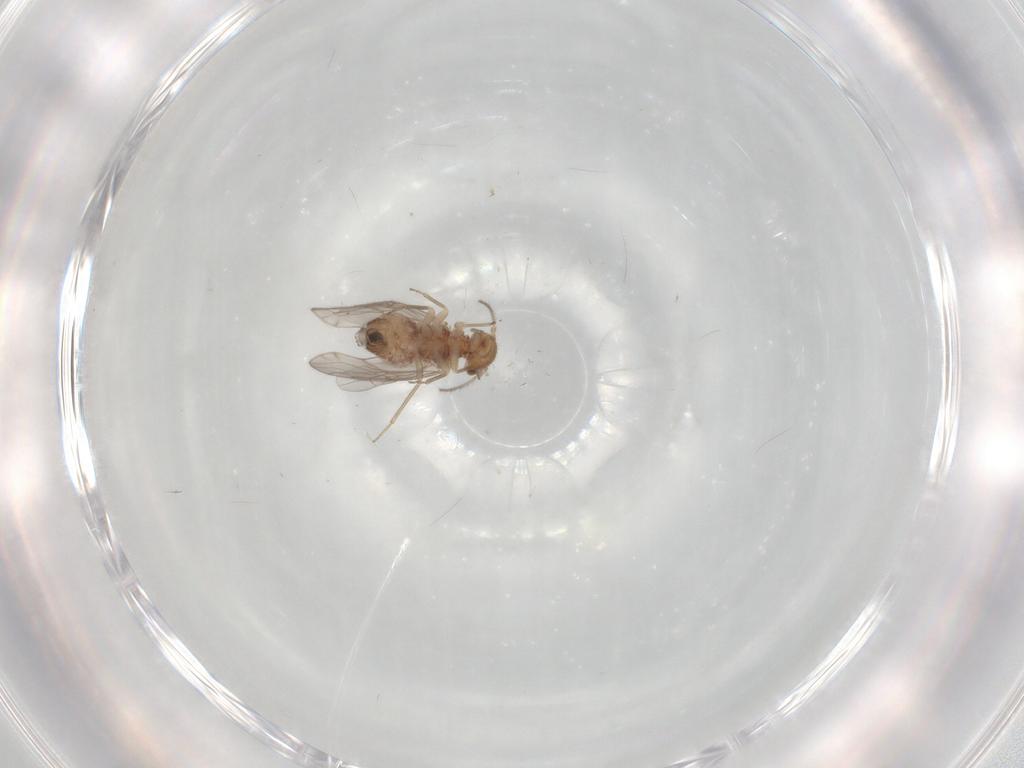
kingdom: Animalia
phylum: Arthropoda
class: Insecta
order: Psocodea
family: Ectopsocidae
